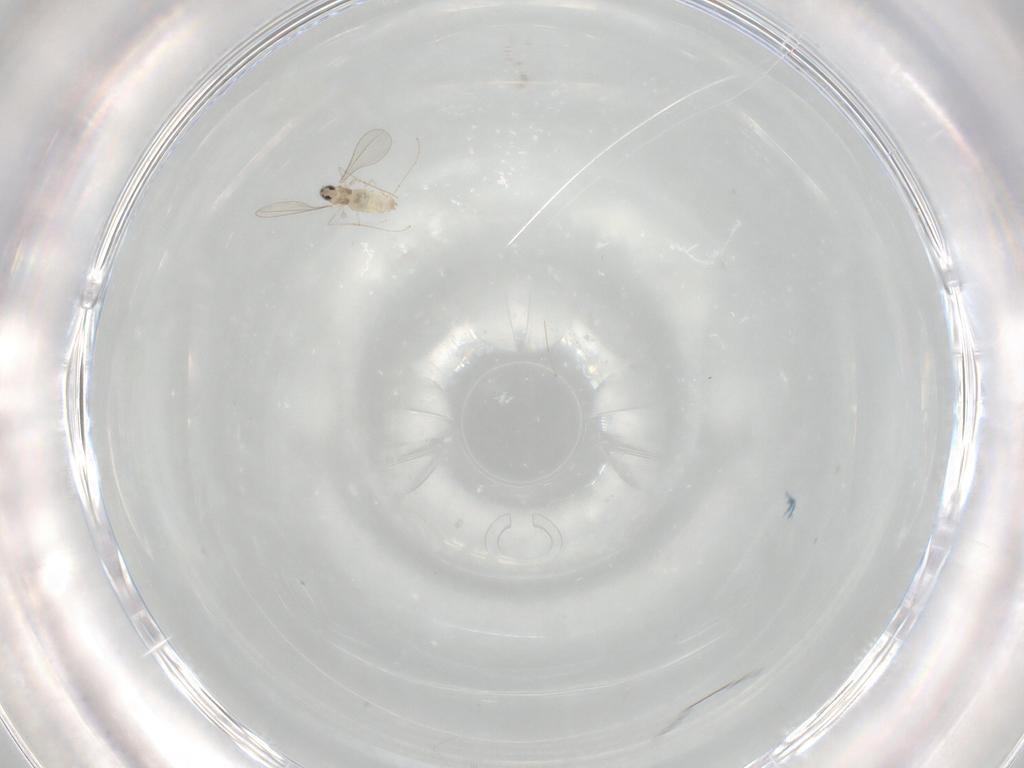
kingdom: Animalia
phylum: Arthropoda
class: Insecta
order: Diptera
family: Cecidomyiidae
